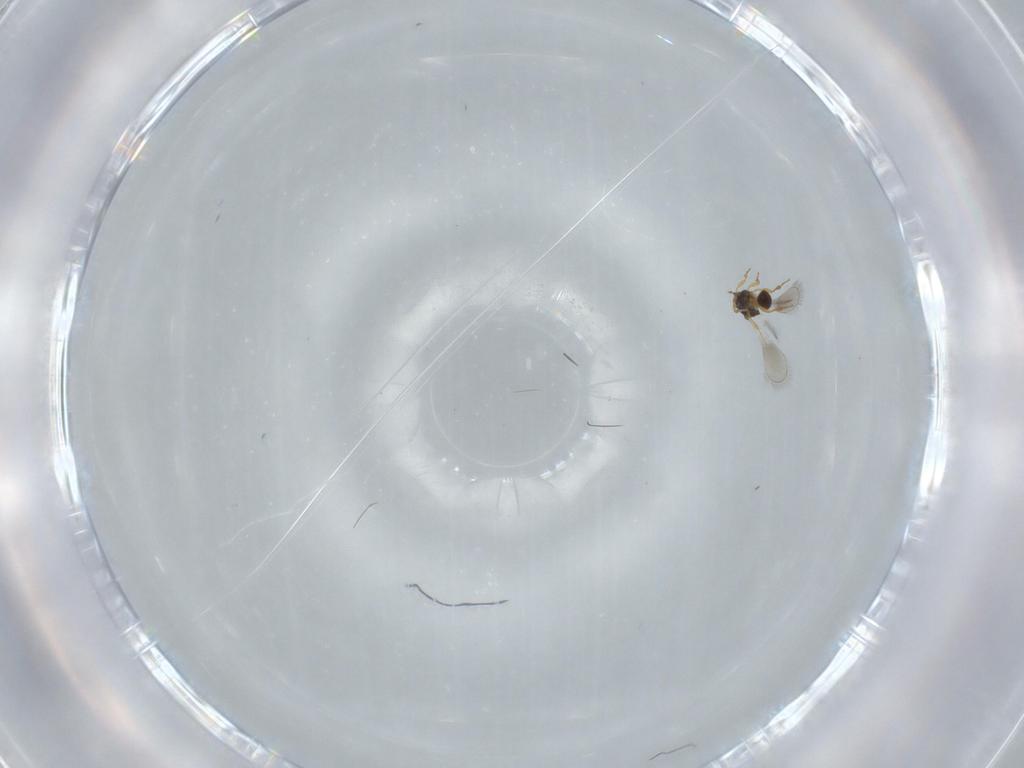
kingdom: Animalia
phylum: Arthropoda
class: Insecta
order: Hymenoptera
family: Platygastridae
